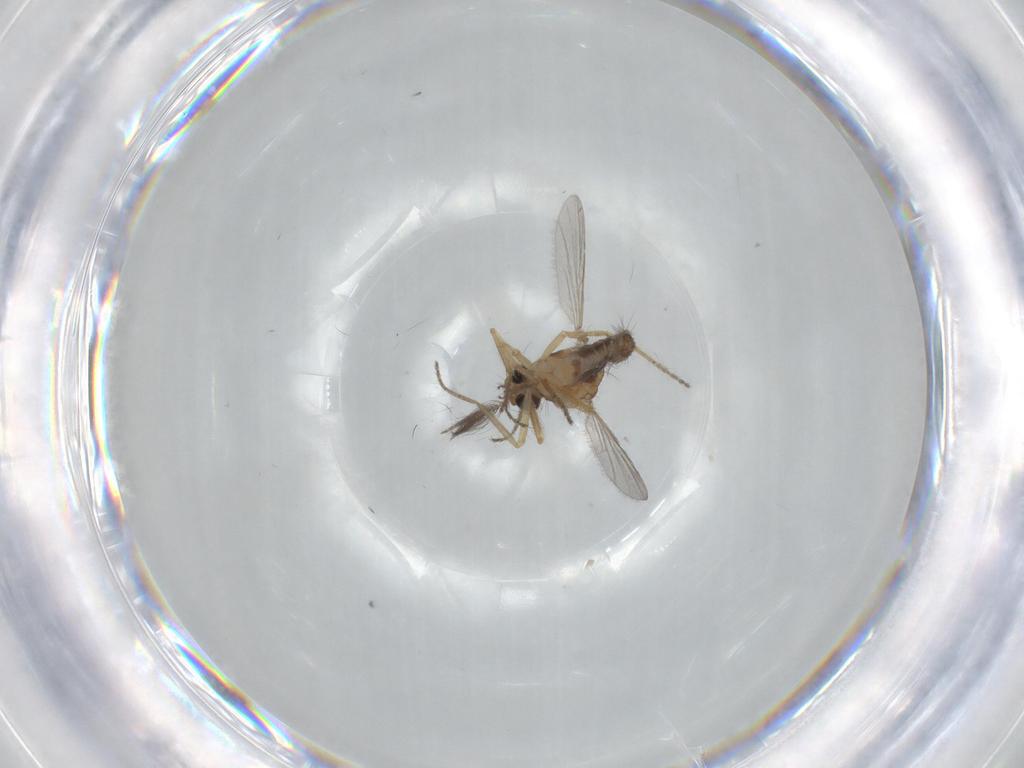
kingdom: Animalia
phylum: Arthropoda
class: Insecta
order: Diptera
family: Ceratopogonidae
